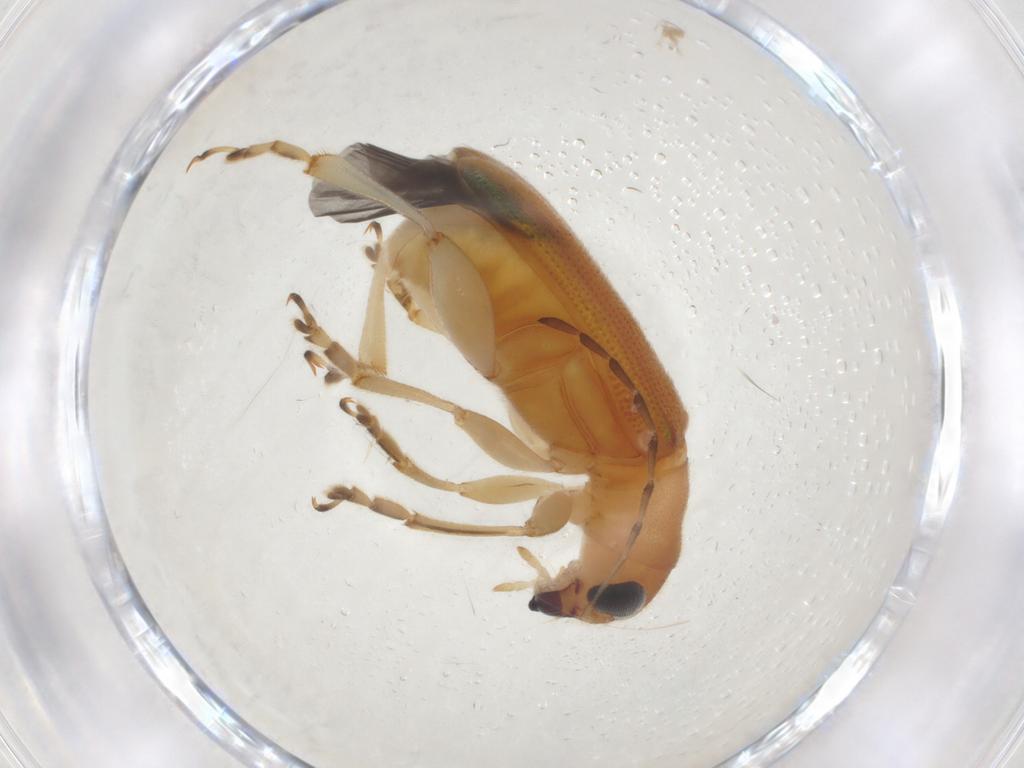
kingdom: Animalia
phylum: Arthropoda
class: Insecta
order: Coleoptera
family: Chrysomelidae
